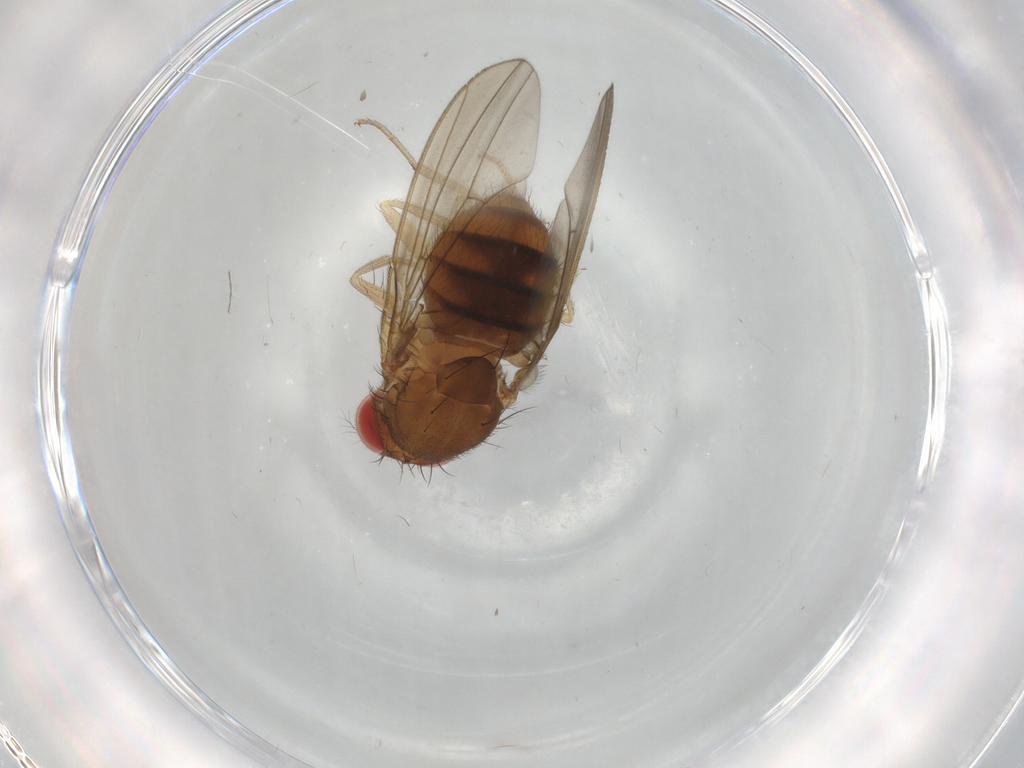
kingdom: Animalia
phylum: Arthropoda
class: Insecta
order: Diptera
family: Drosophilidae
